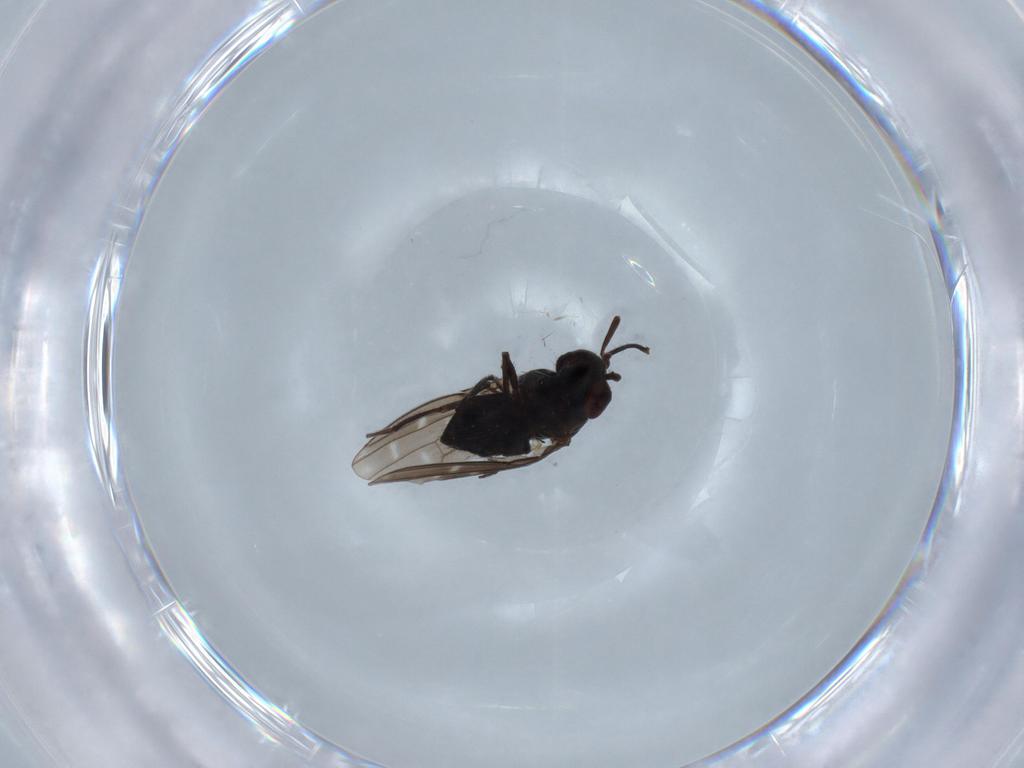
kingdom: Animalia
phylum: Arthropoda
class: Insecta
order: Diptera
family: Ephydridae
